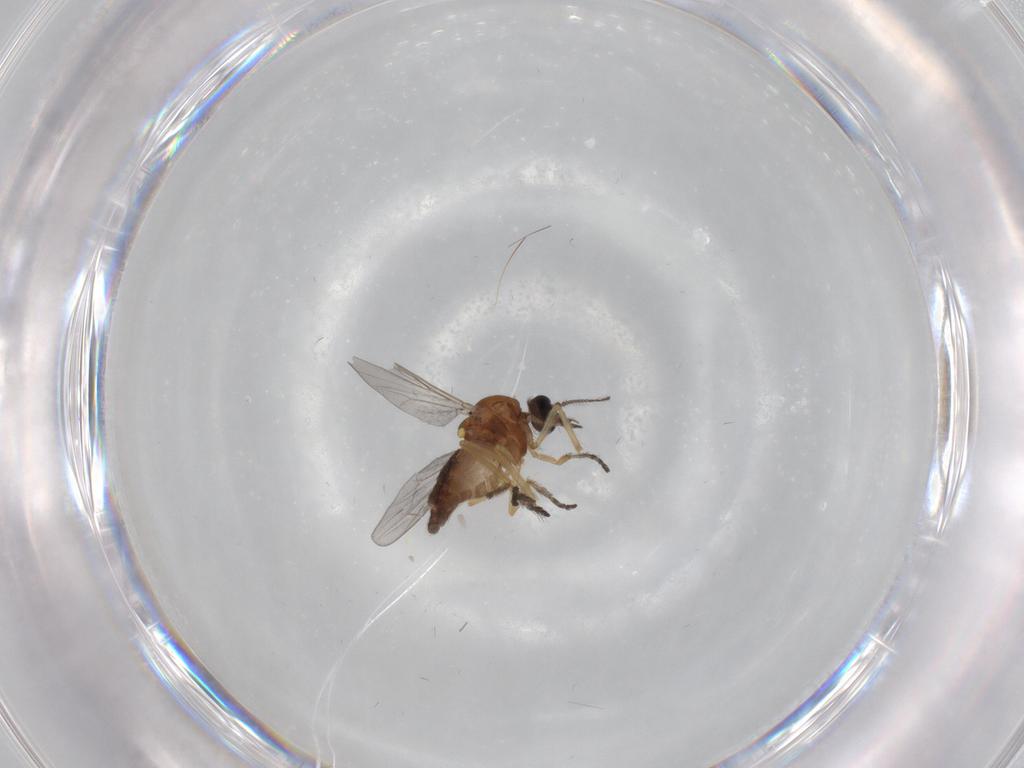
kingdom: Animalia
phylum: Arthropoda
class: Insecta
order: Diptera
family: Ceratopogonidae
